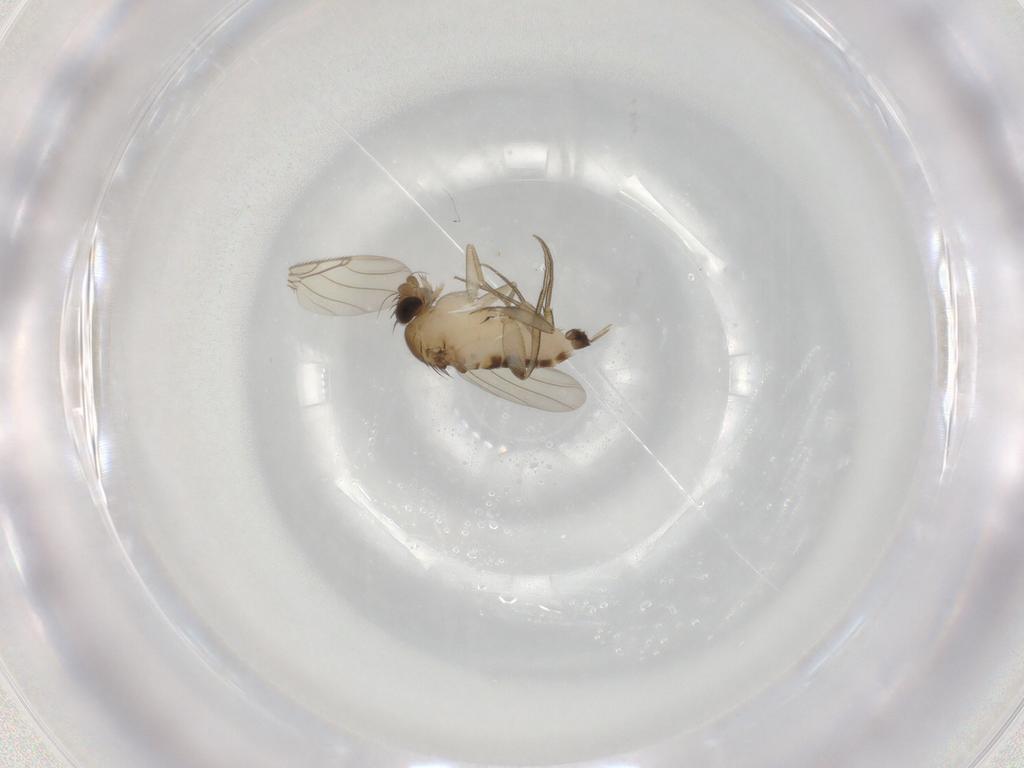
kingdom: Animalia
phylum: Arthropoda
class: Insecta
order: Diptera
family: Phoridae
